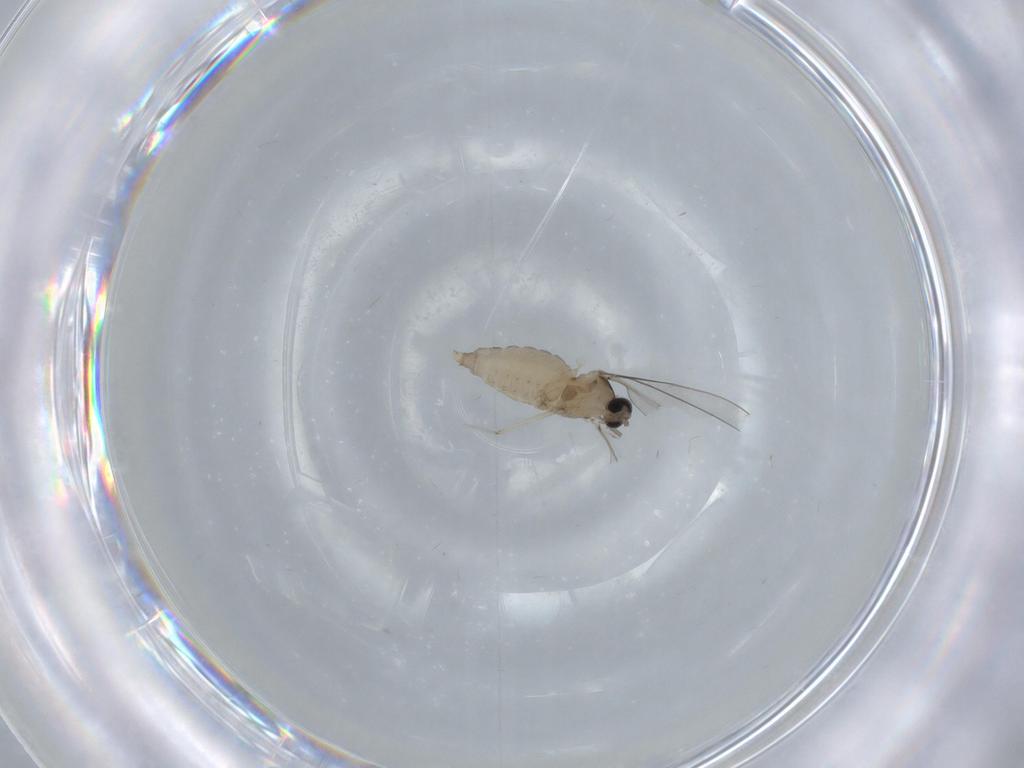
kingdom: Animalia
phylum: Arthropoda
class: Insecta
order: Diptera
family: Cecidomyiidae
